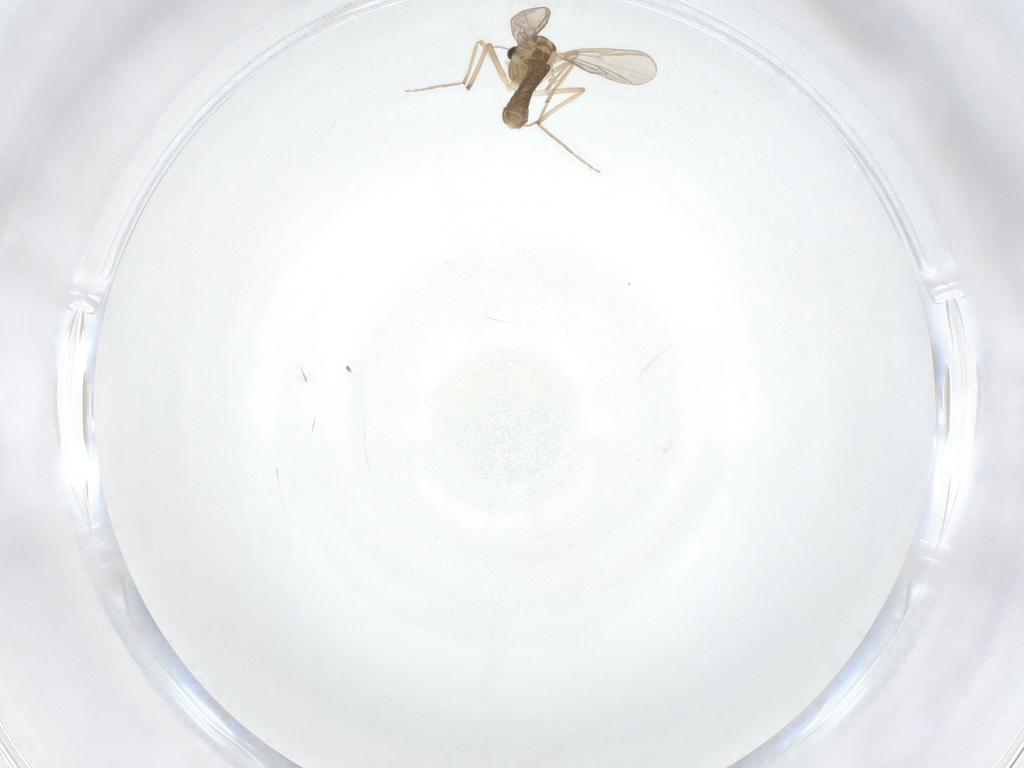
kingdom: Animalia
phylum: Arthropoda
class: Insecta
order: Diptera
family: Chironomidae
